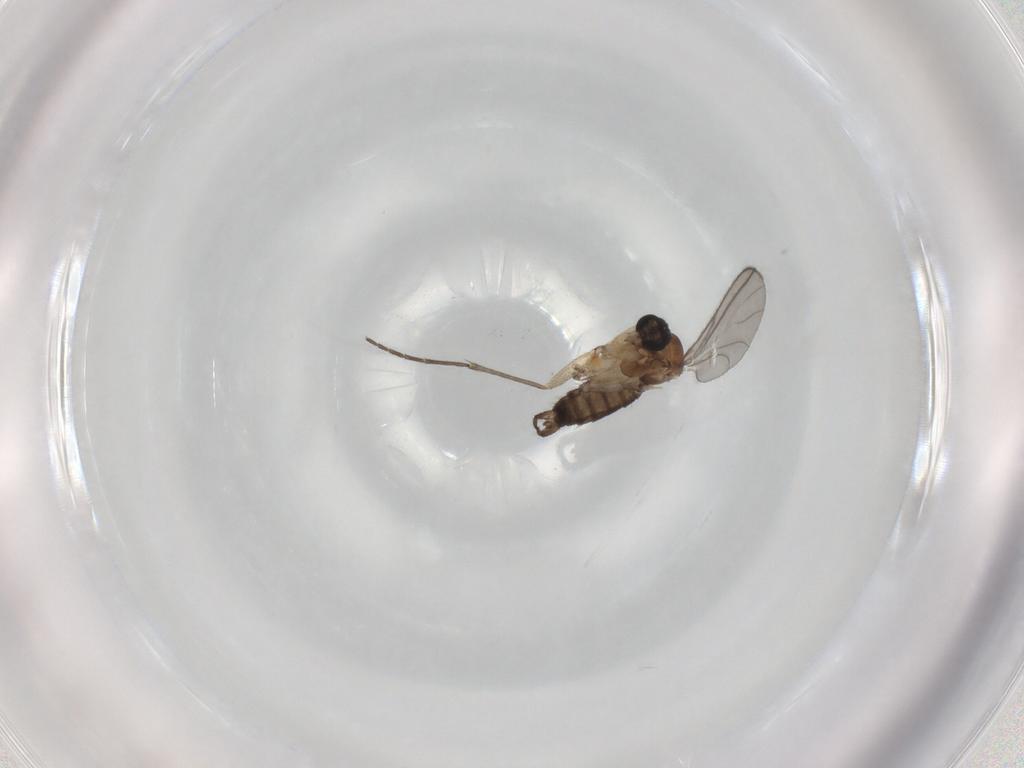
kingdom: Animalia
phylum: Arthropoda
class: Insecta
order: Diptera
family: Sciaridae
